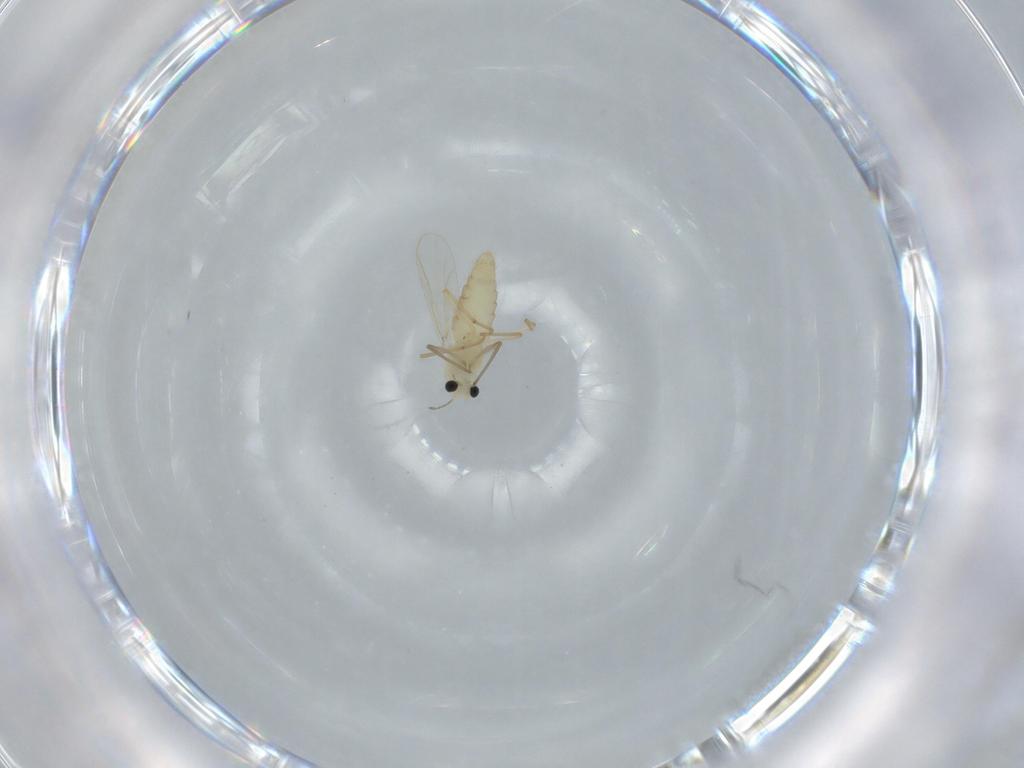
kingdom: Animalia
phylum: Arthropoda
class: Insecta
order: Diptera
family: Chironomidae
